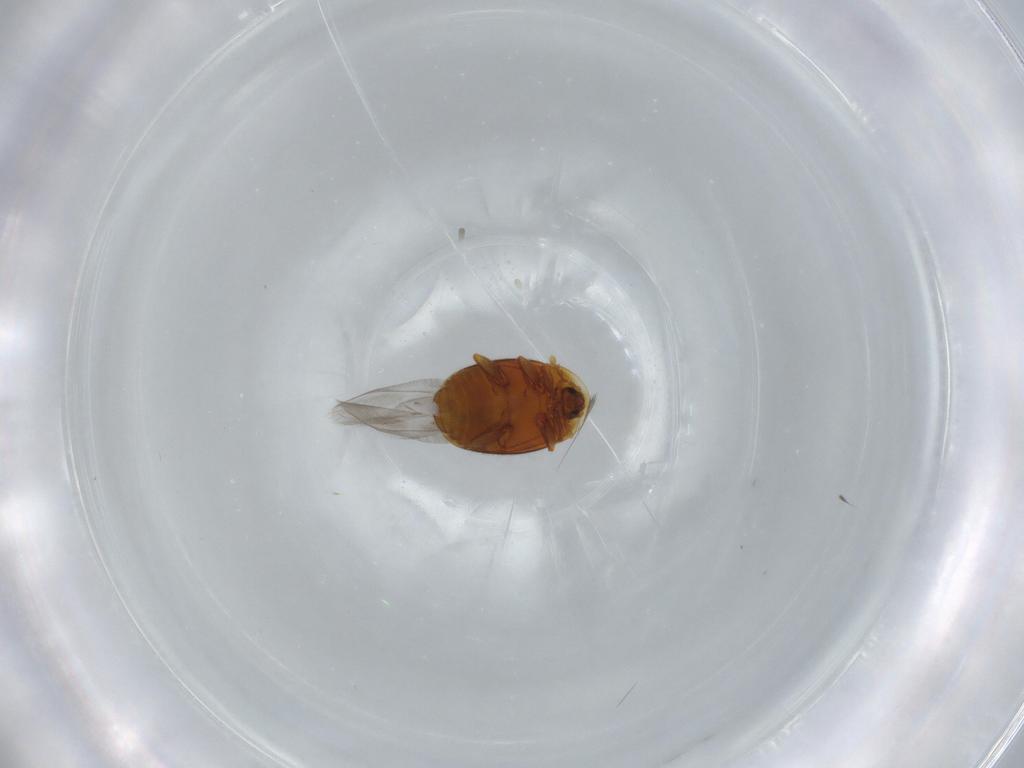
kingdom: Animalia
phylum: Arthropoda
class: Insecta
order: Coleoptera
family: Corylophidae
